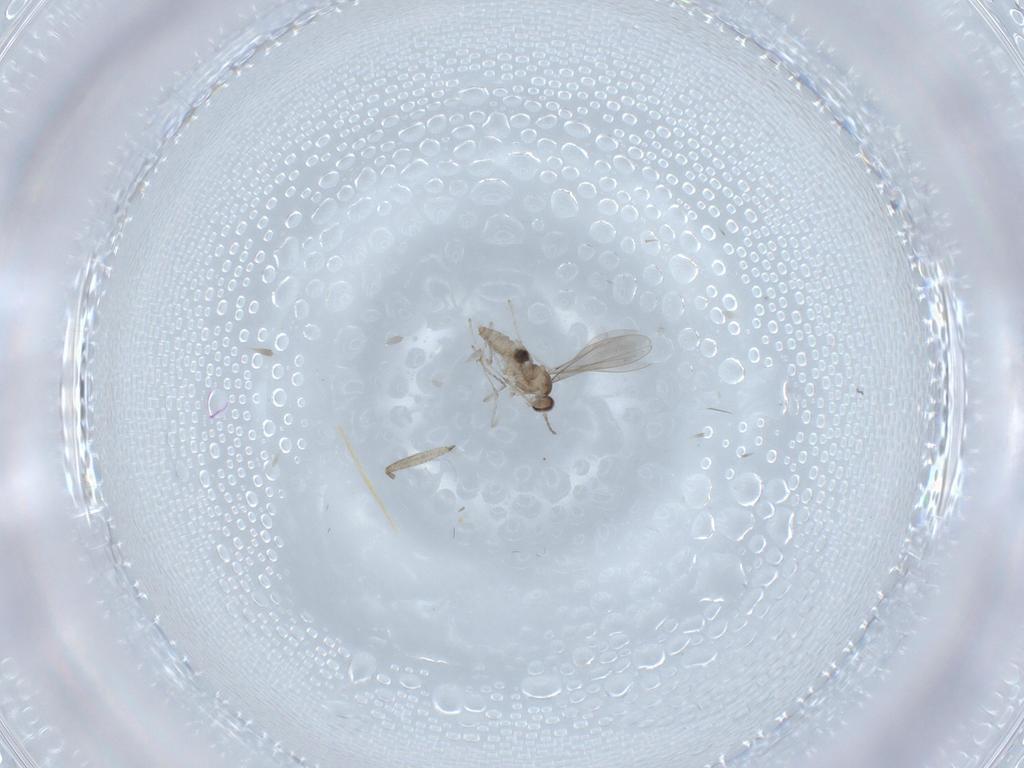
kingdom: Animalia
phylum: Arthropoda
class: Insecta
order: Diptera
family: Sciaridae
